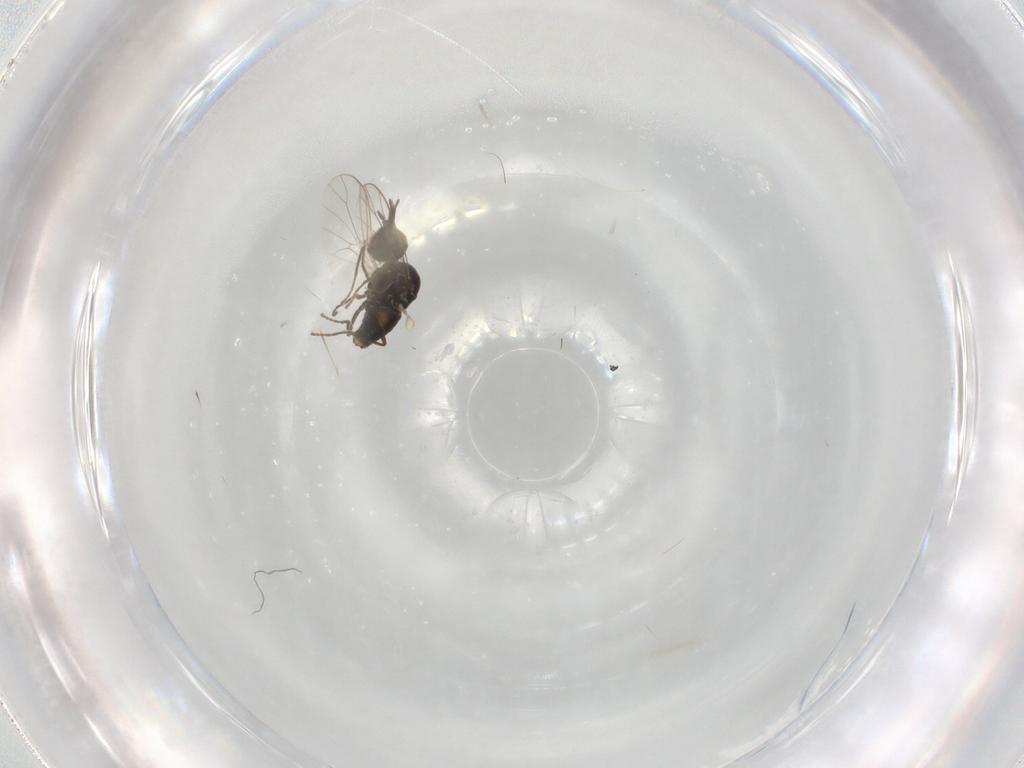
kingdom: Animalia
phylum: Arthropoda
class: Insecta
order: Diptera
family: Bombyliidae
